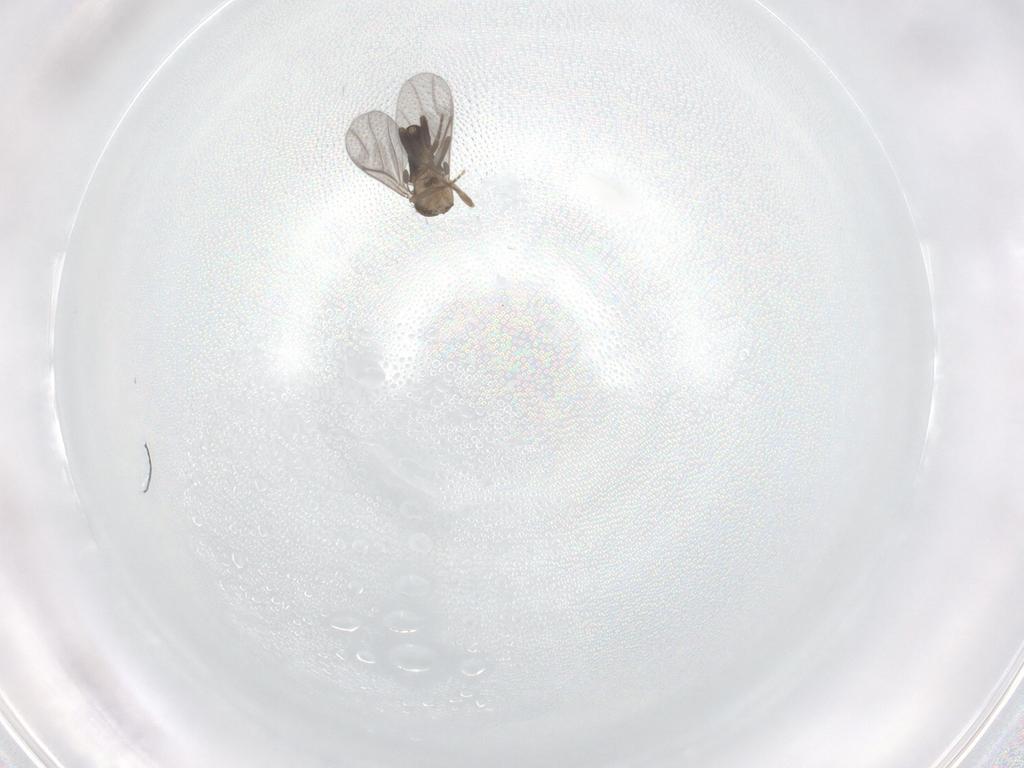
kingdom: Animalia
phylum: Arthropoda
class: Insecta
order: Diptera
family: Phoridae
